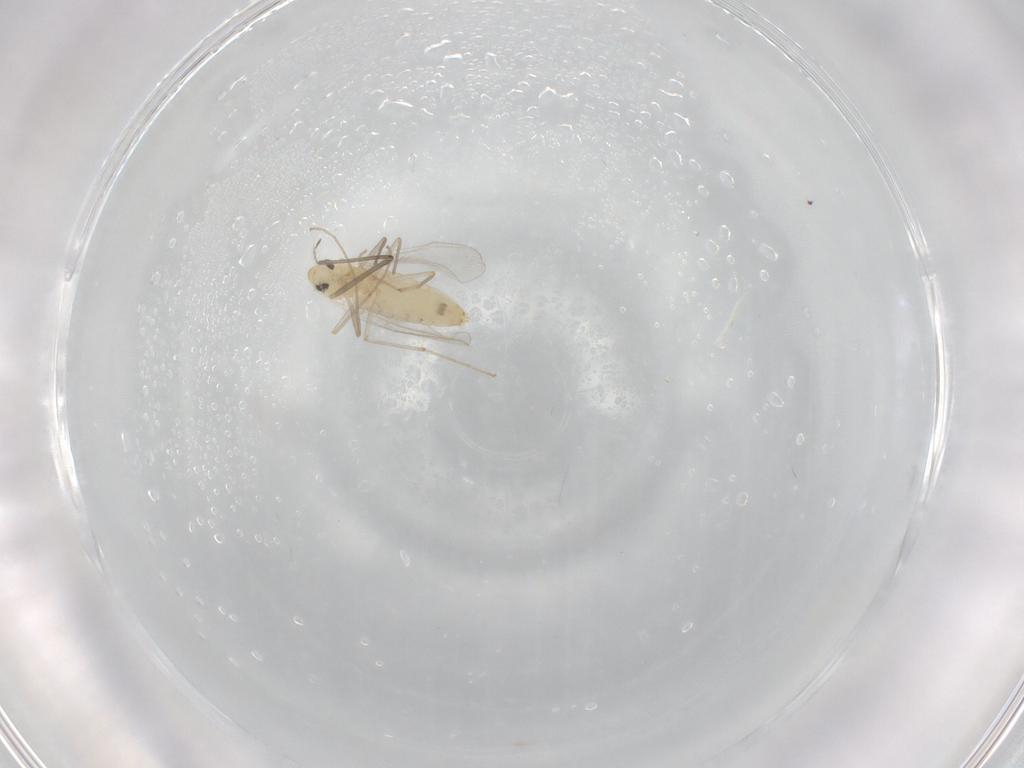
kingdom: Animalia
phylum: Arthropoda
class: Insecta
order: Diptera
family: Chironomidae
